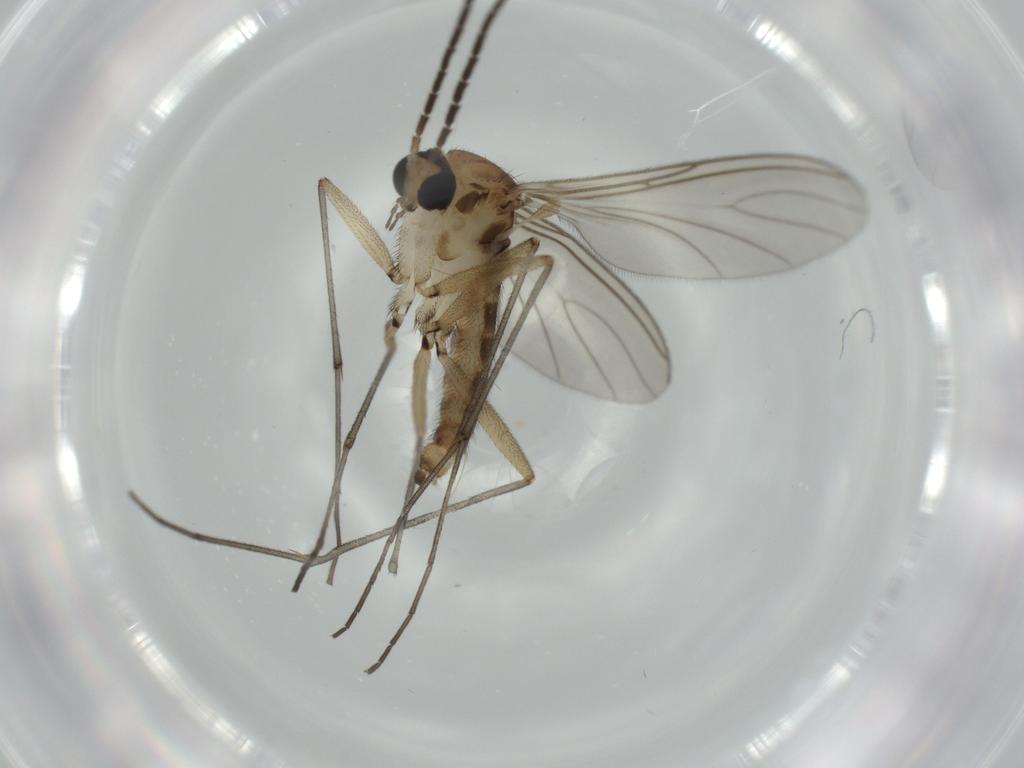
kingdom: Animalia
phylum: Arthropoda
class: Insecta
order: Diptera
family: Sciaridae
